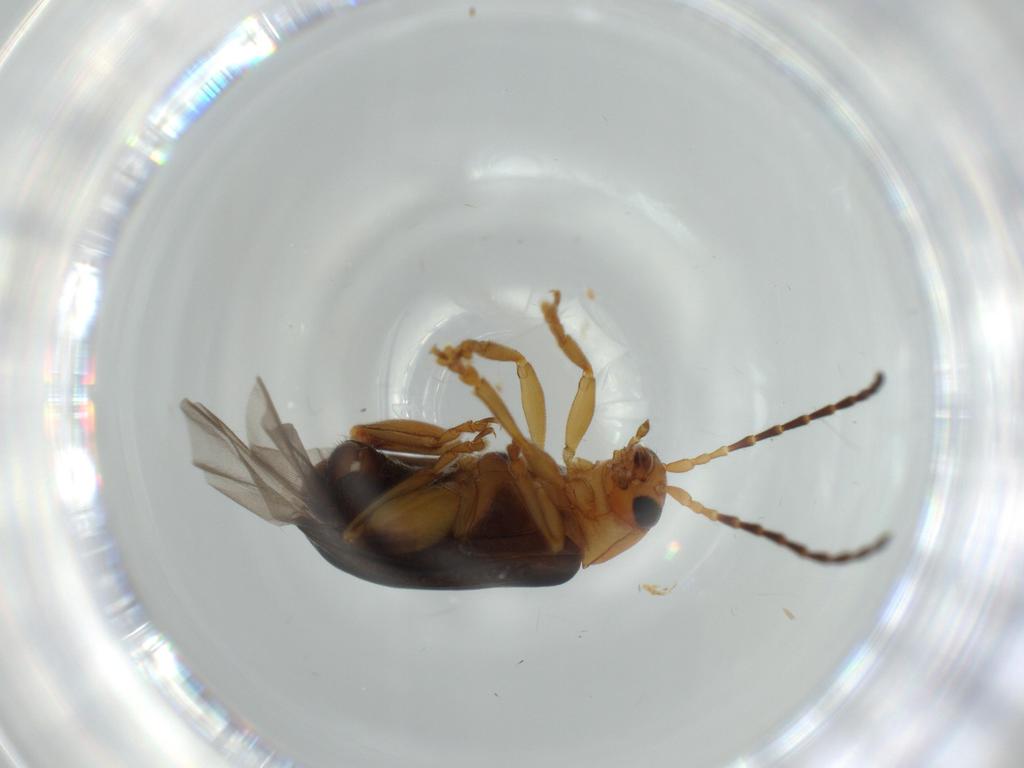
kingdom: Animalia
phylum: Arthropoda
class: Insecta
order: Coleoptera
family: Chrysomelidae
